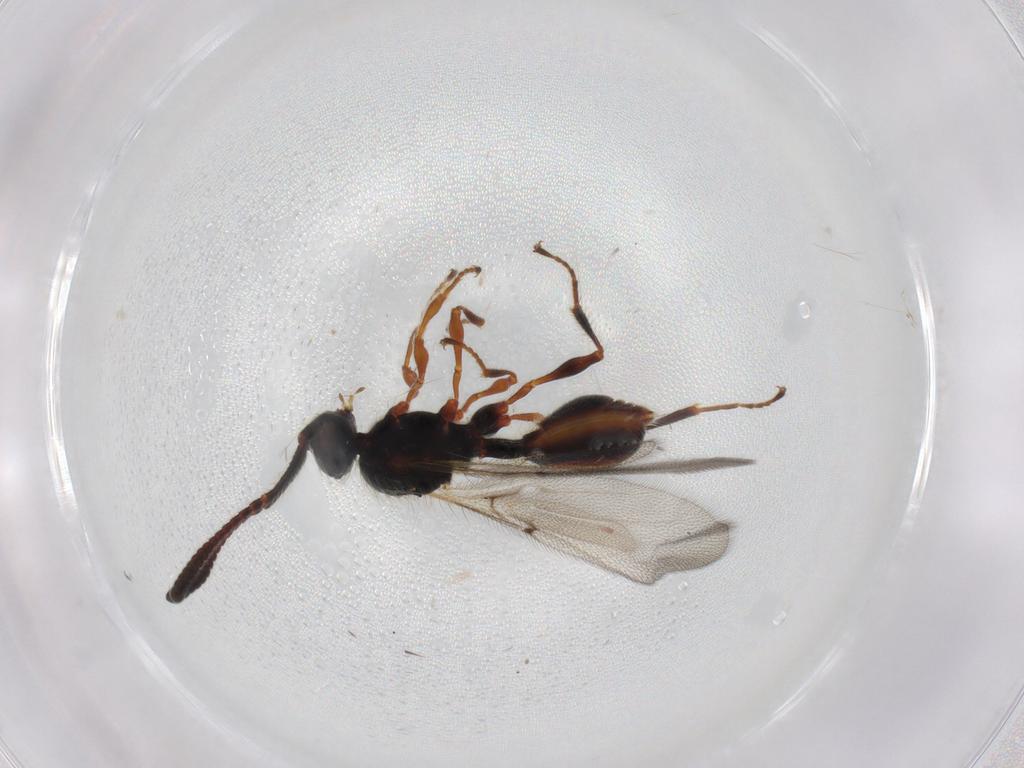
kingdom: Animalia
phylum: Arthropoda
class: Insecta
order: Hymenoptera
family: Diapriidae
